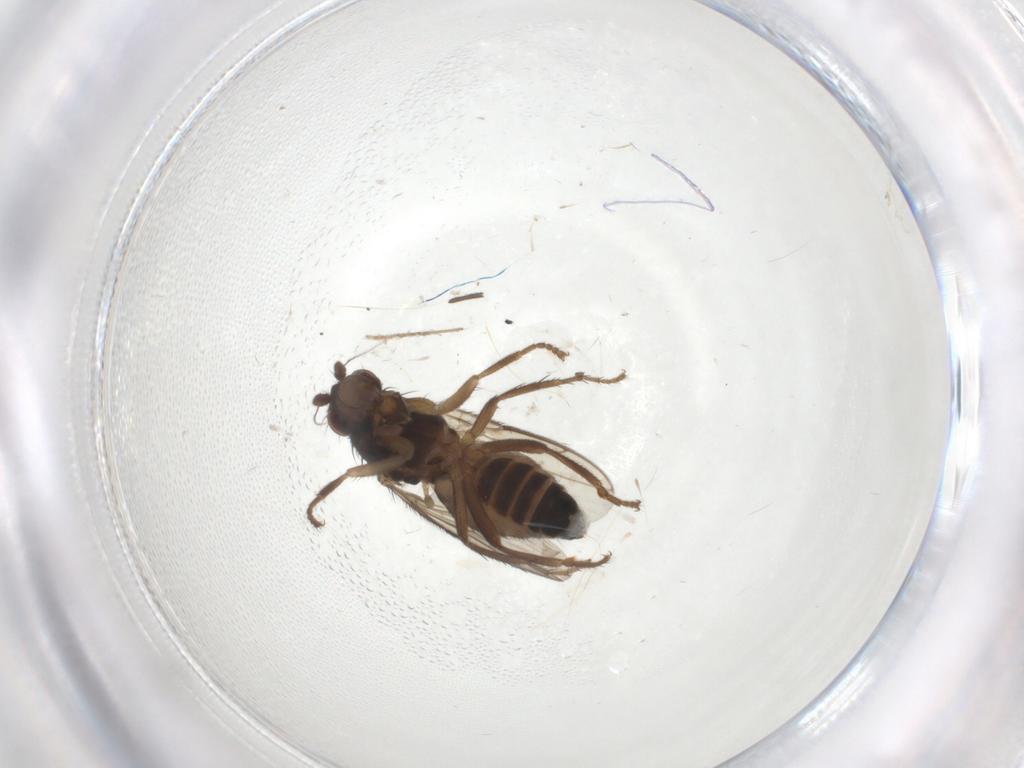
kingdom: Animalia
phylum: Arthropoda
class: Insecta
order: Diptera
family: Sphaeroceridae
